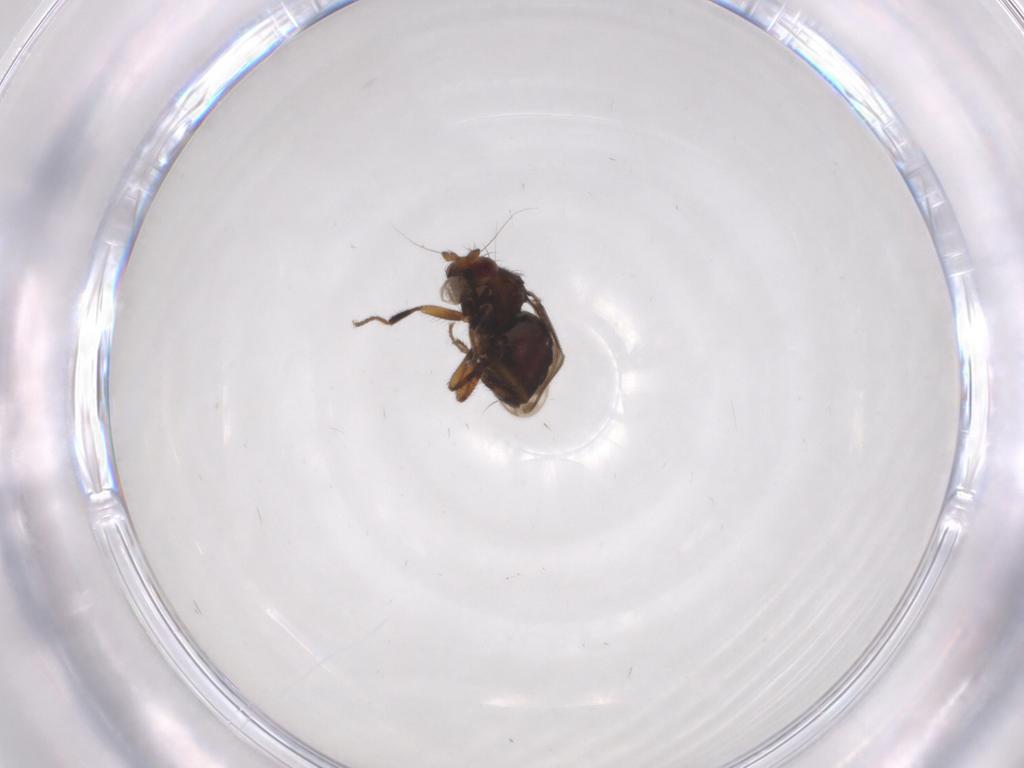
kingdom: Animalia
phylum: Arthropoda
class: Insecta
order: Diptera
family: Sphaeroceridae
